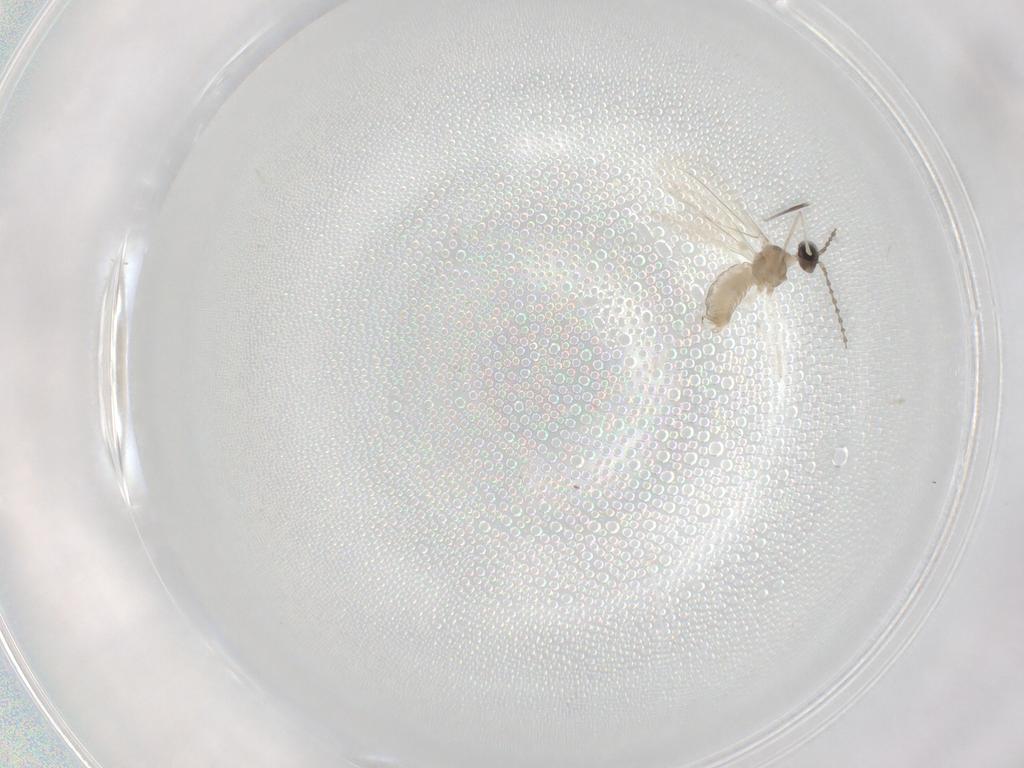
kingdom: Animalia
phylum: Arthropoda
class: Insecta
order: Diptera
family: Cecidomyiidae
